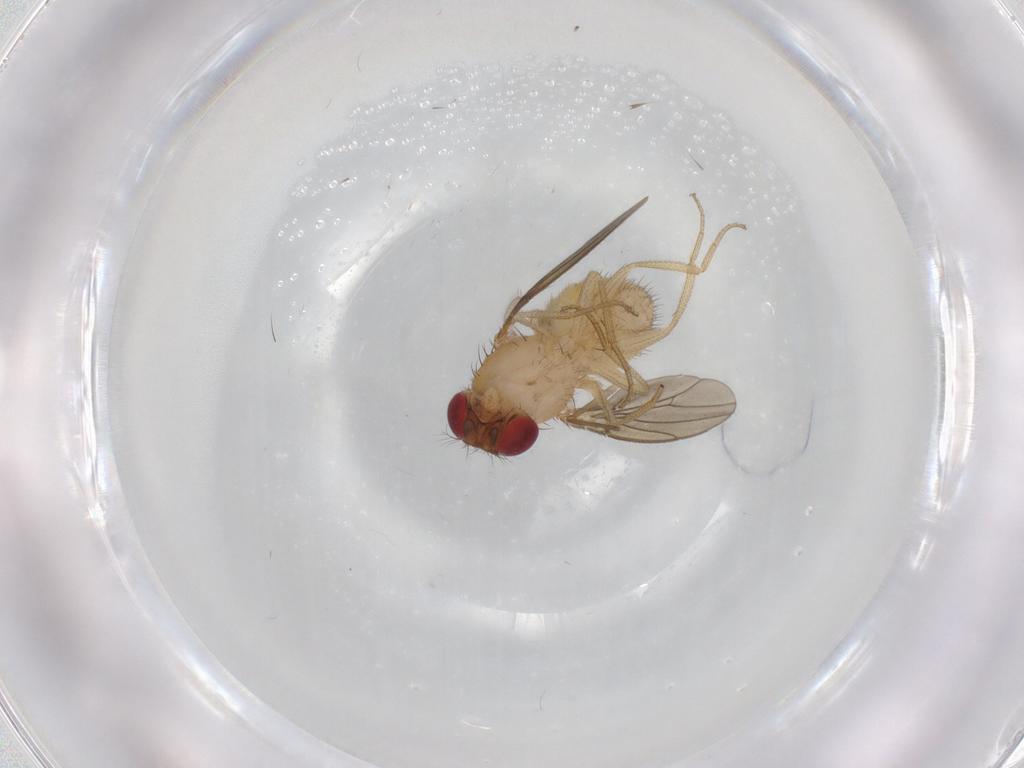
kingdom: Animalia
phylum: Arthropoda
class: Insecta
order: Diptera
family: Drosophilidae
